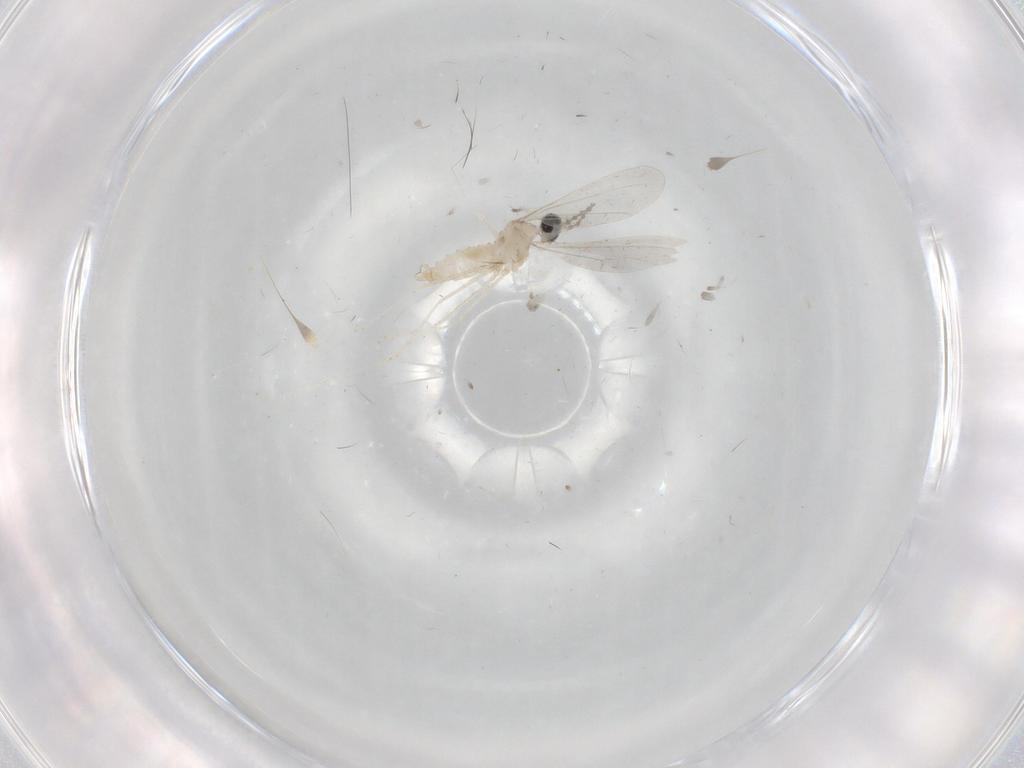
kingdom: Animalia
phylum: Arthropoda
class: Insecta
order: Diptera
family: Cecidomyiidae
